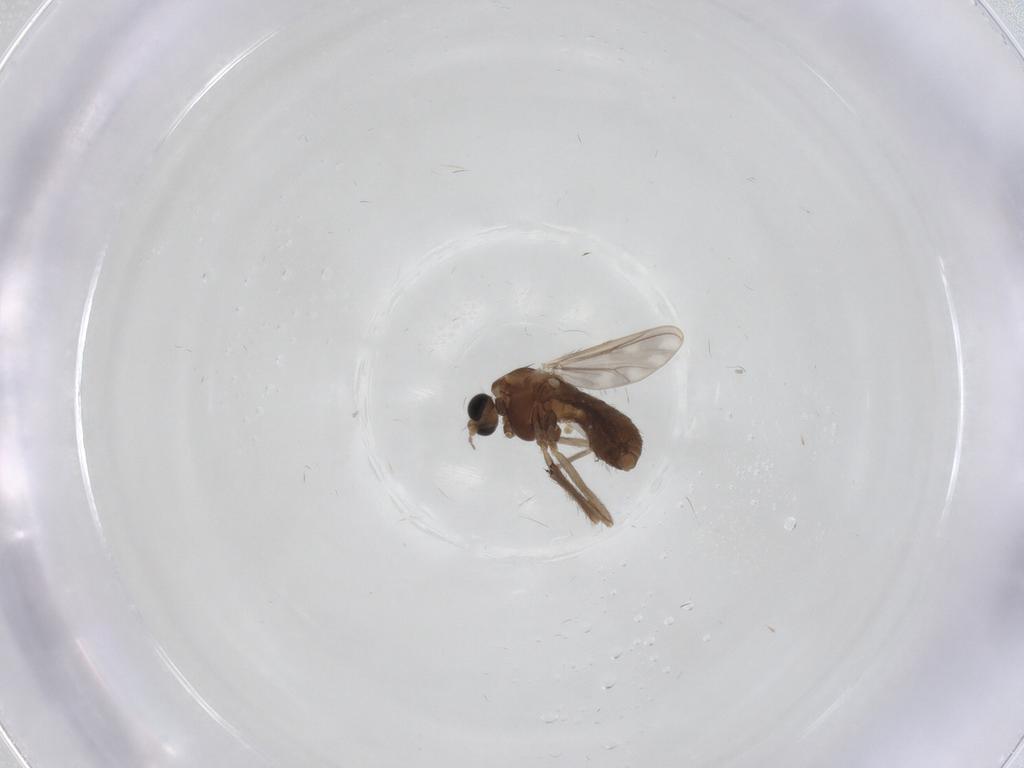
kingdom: Animalia
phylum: Arthropoda
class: Insecta
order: Diptera
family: Chironomidae
